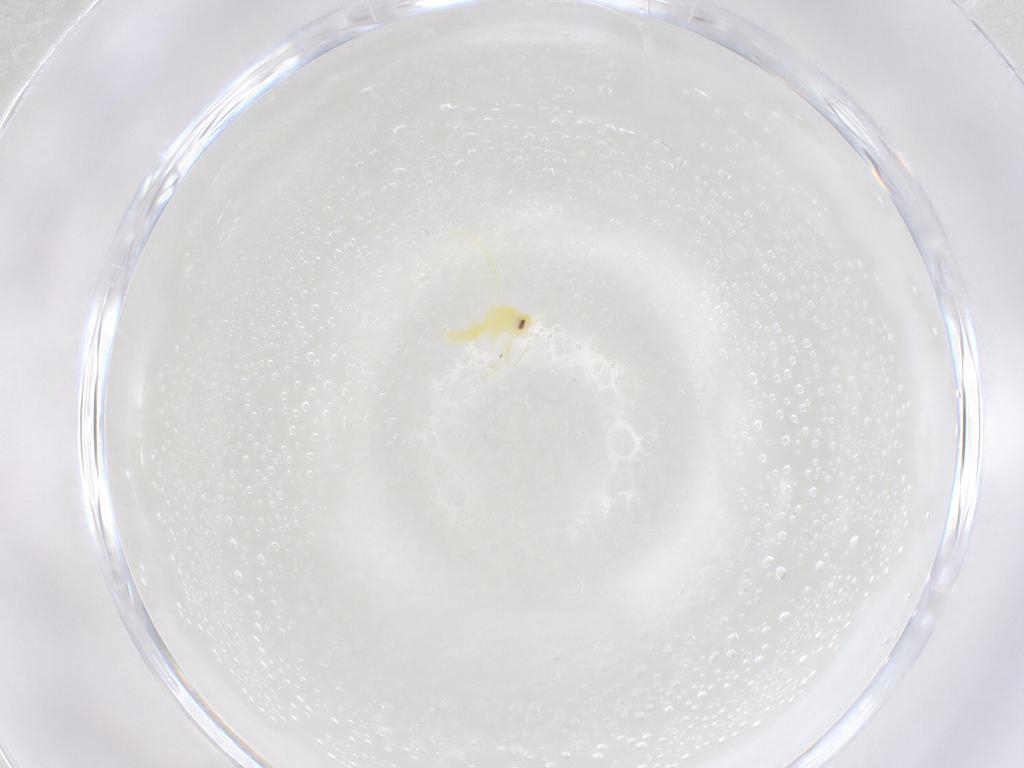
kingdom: Animalia
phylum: Arthropoda
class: Insecta
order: Hemiptera
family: Aleyrodidae
